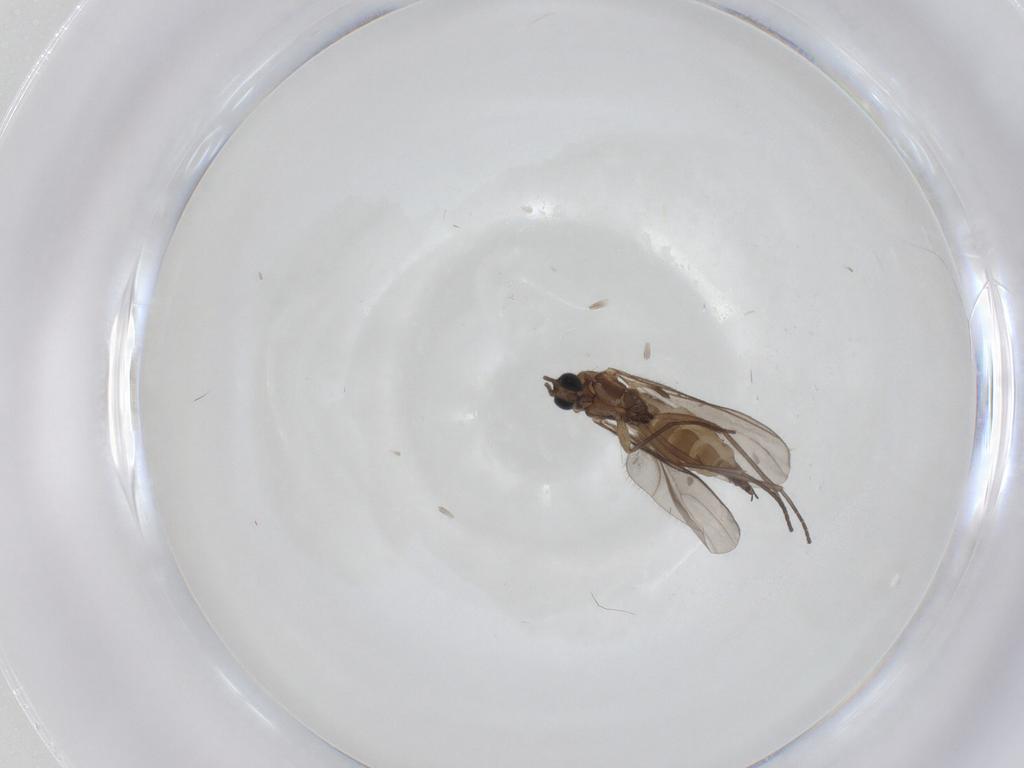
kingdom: Animalia
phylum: Arthropoda
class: Insecta
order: Diptera
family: Sciaridae
